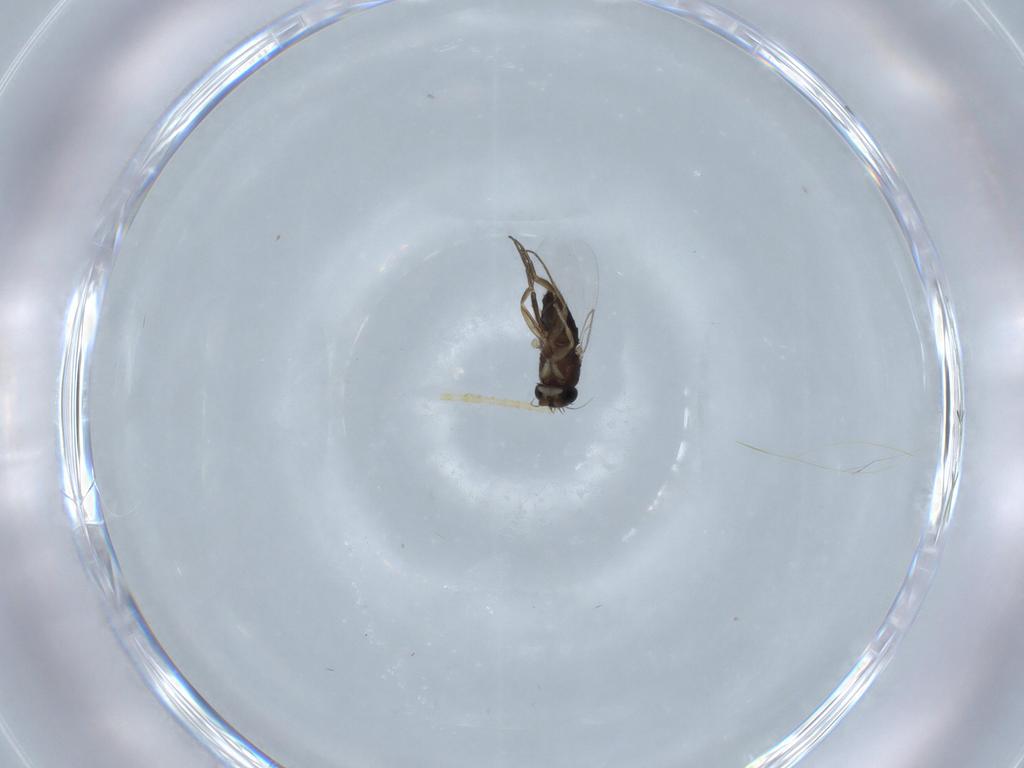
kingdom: Animalia
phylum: Arthropoda
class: Insecta
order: Diptera
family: Phoridae
